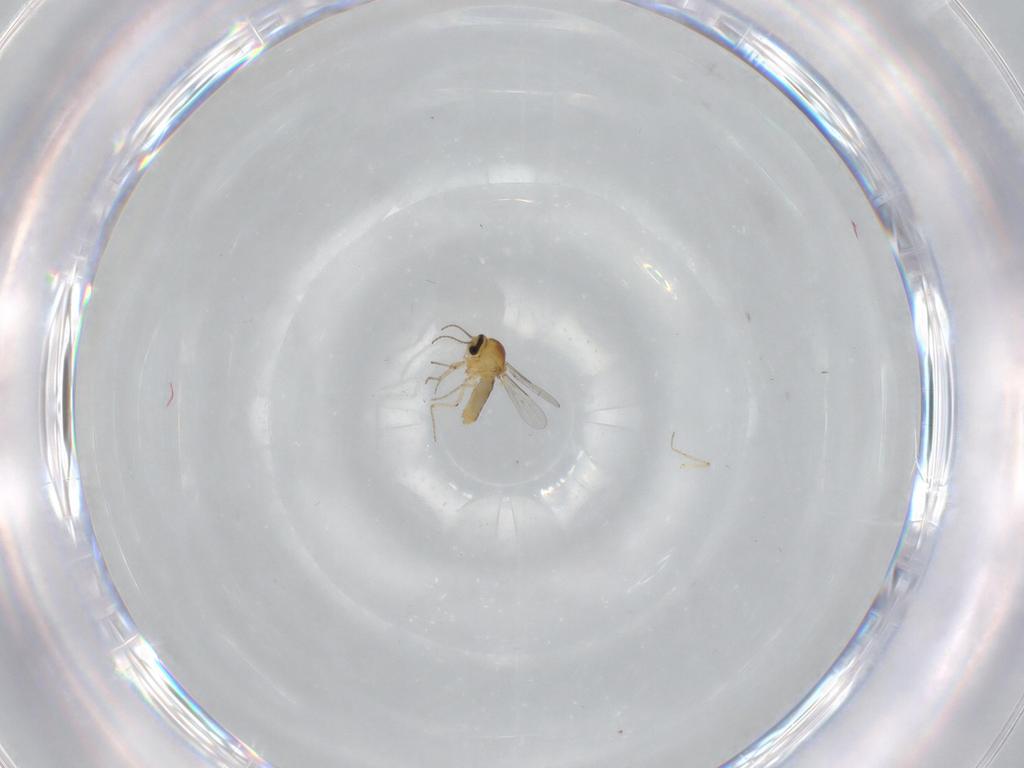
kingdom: Animalia
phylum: Arthropoda
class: Insecta
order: Diptera
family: Ceratopogonidae
